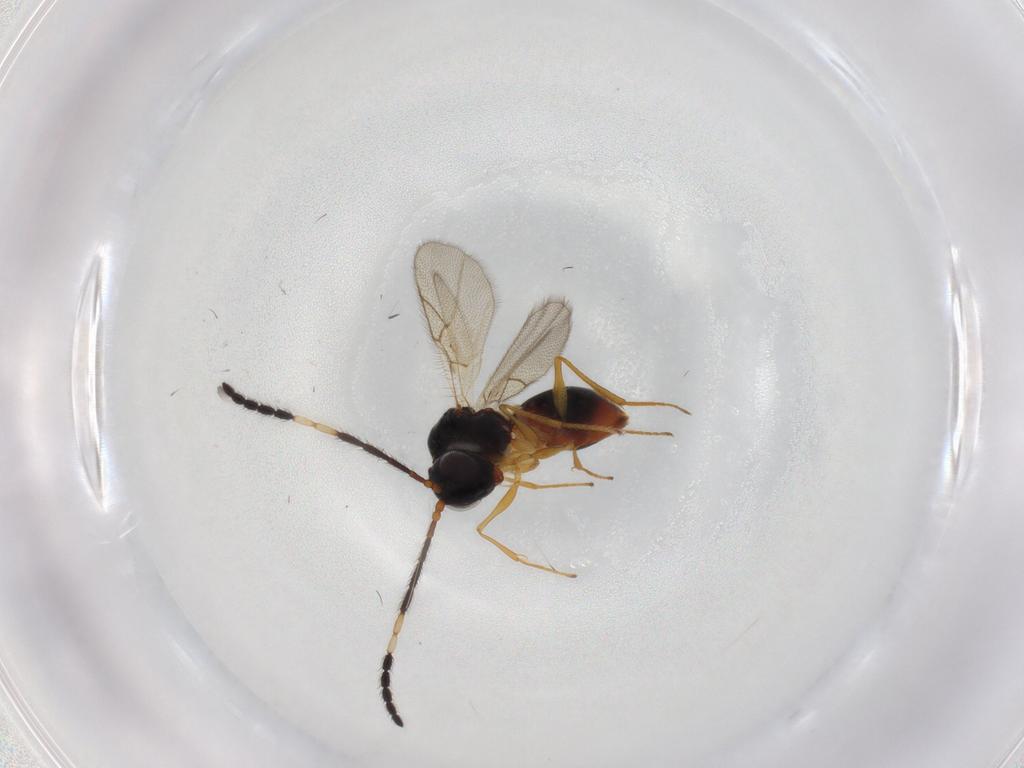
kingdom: Animalia
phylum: Arthropoda
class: Insecta
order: Hymenoptera
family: Figitidae
